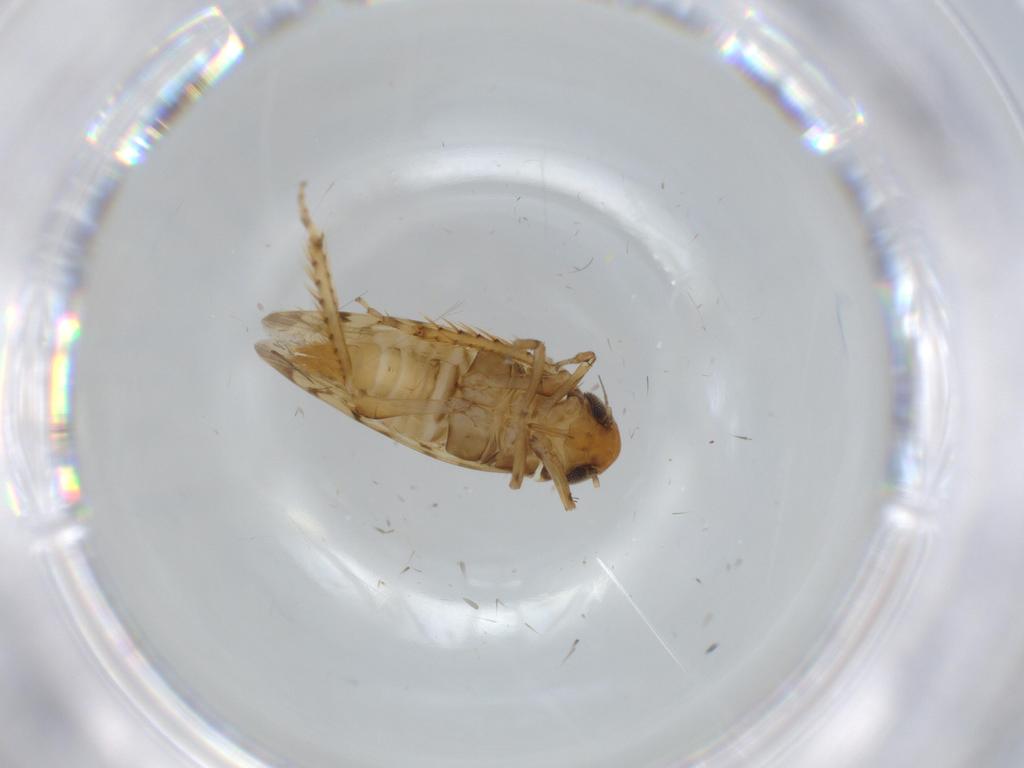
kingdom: Animalia
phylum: Arthropoda
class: Insecta
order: Hemiptera
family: Cicadellidae
